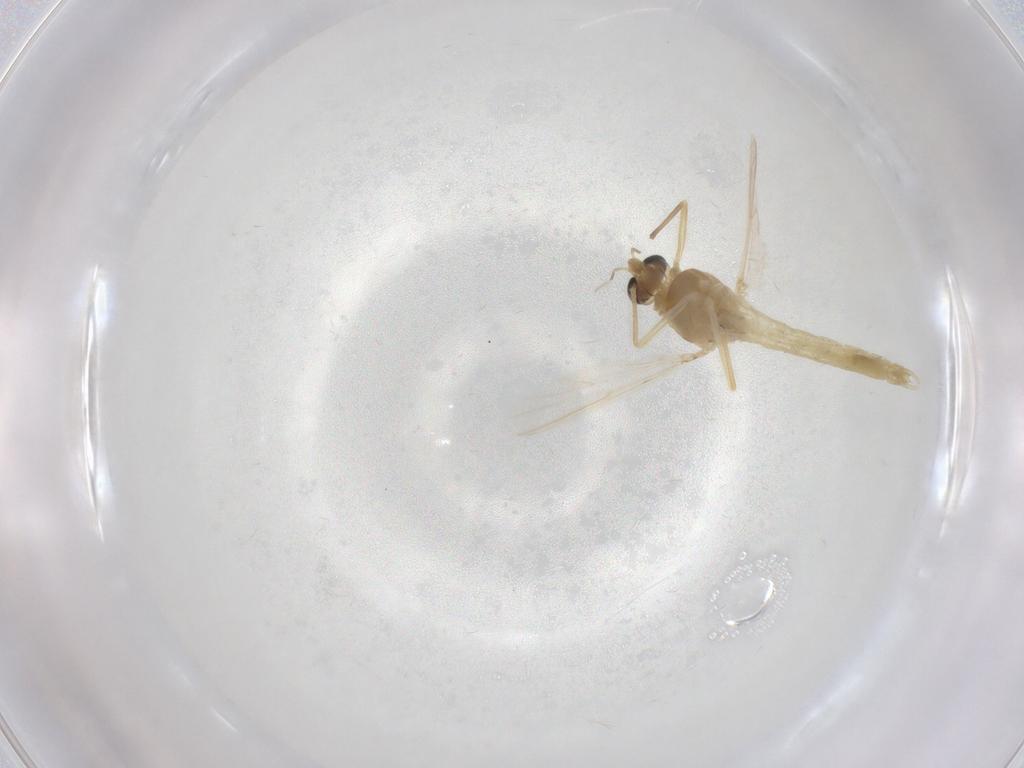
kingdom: Animalia
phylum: Arthropoda
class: Insecta
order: Diptera
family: Chironomidae
